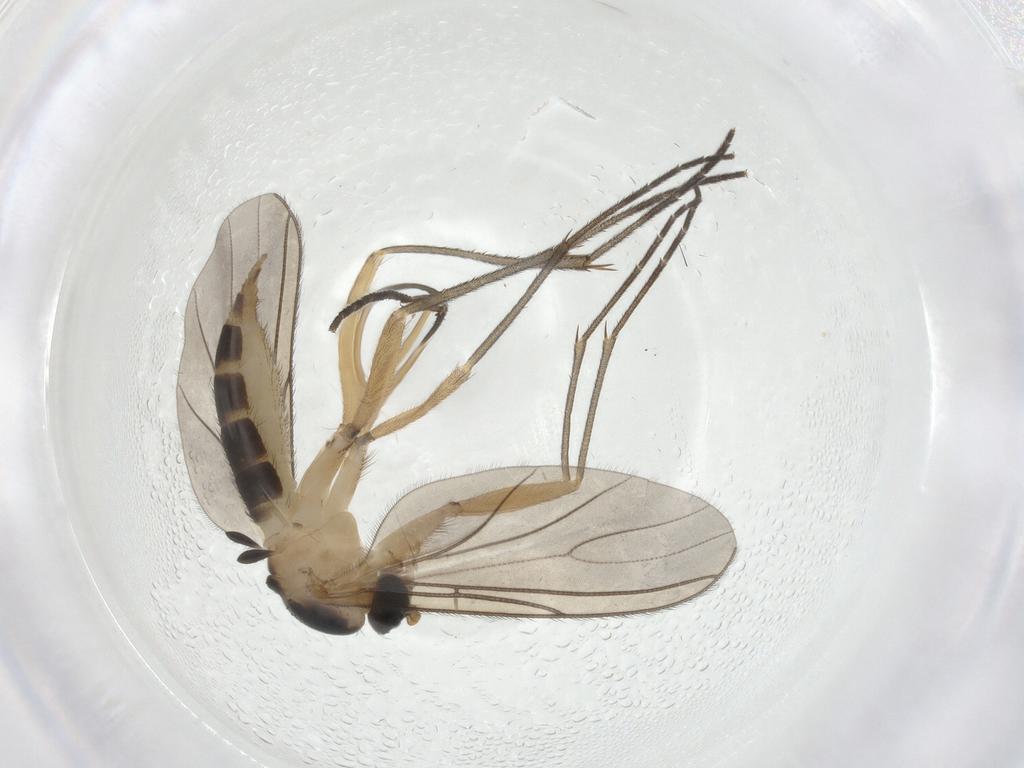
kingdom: Animalia
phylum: Arthropoda
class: Insecta
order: Diptera
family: Sciaridae
